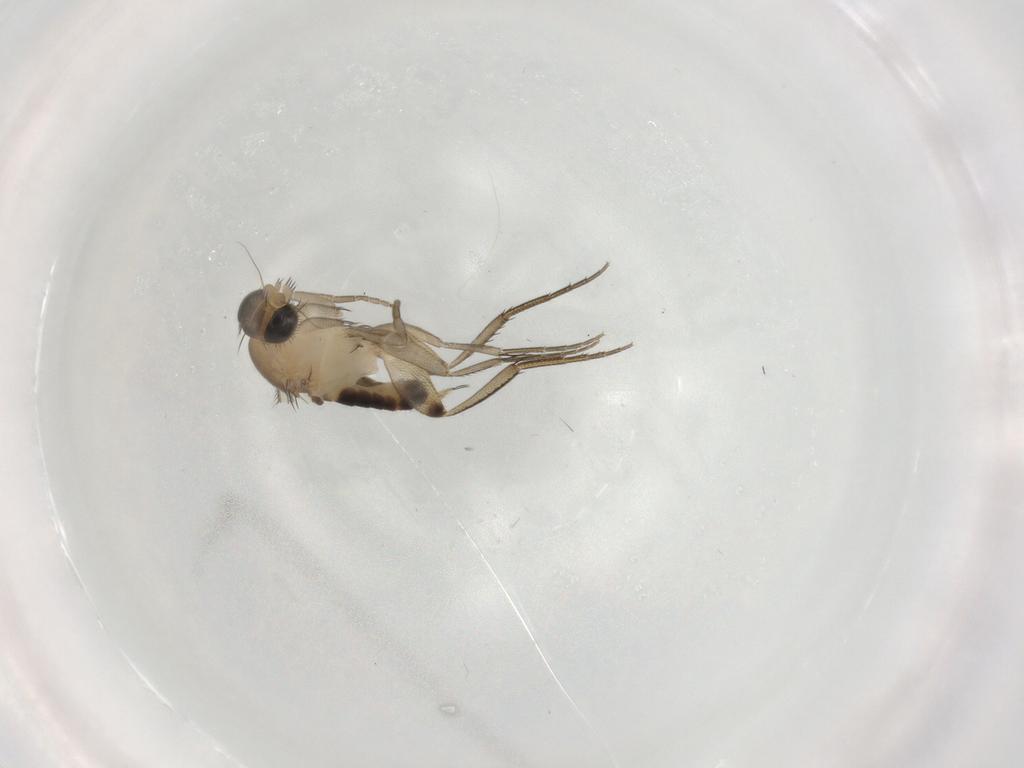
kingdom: Animalia
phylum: Arthropoda
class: Insecta
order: Diptera
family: Phoridae
